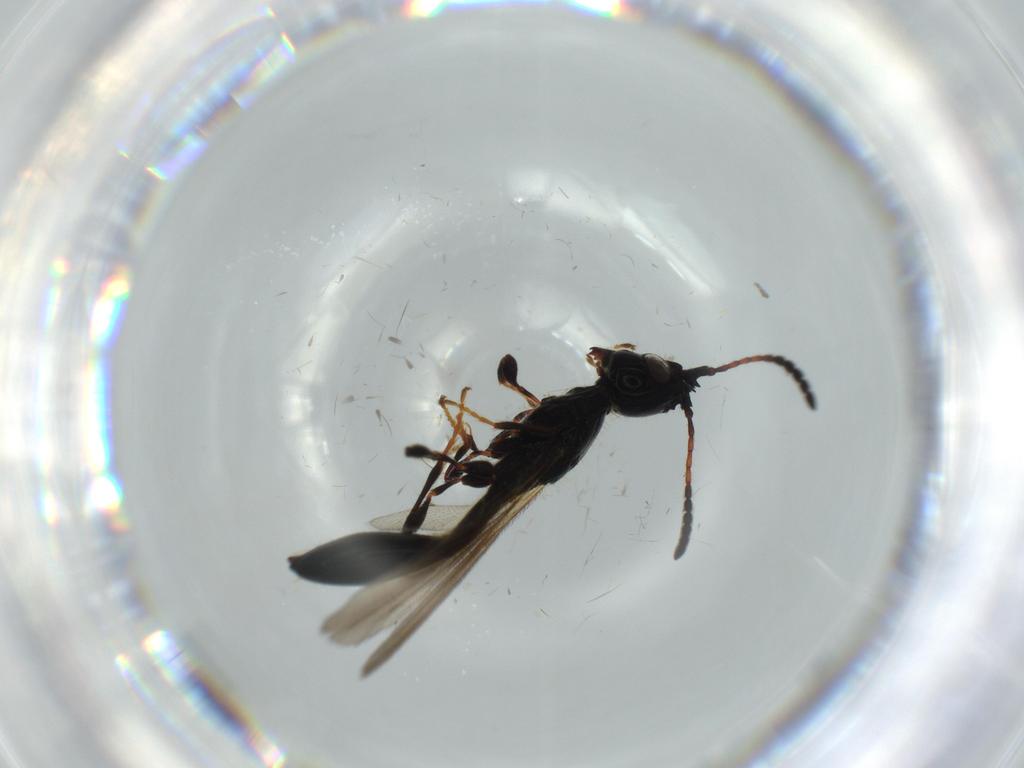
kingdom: Animalia
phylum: Arthropoda
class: Insecta
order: Hymenoptera
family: Diapriidae
